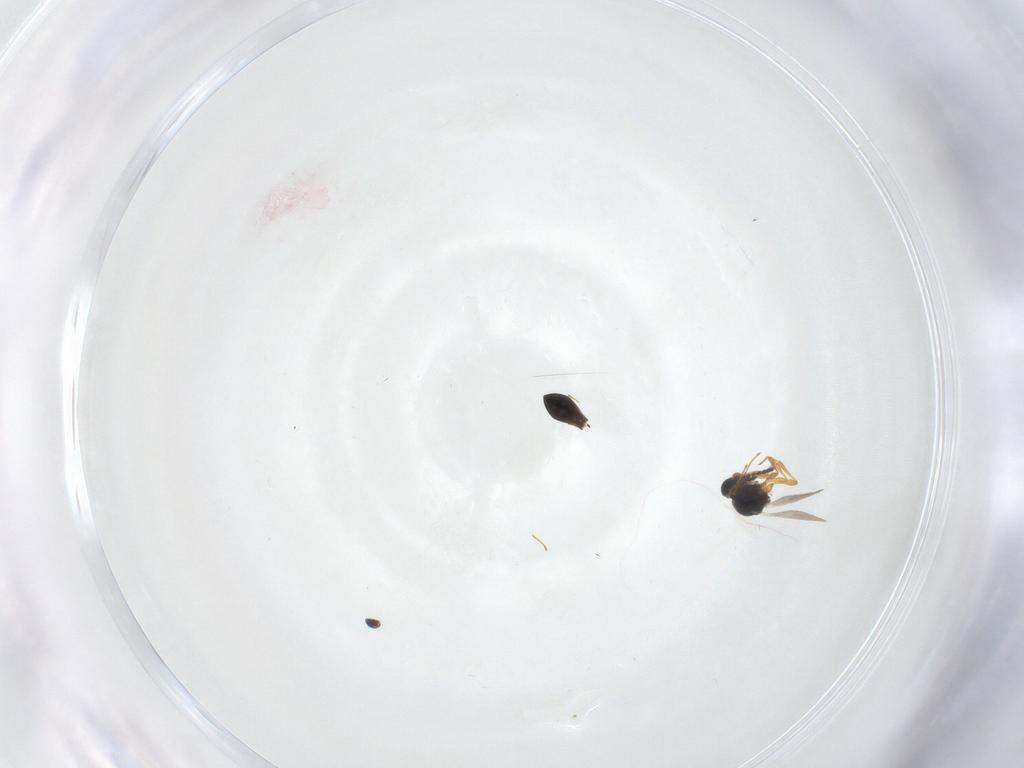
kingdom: Animalia
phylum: Arthropoda
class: Insecta
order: Hymenoptera
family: Platygastridae
